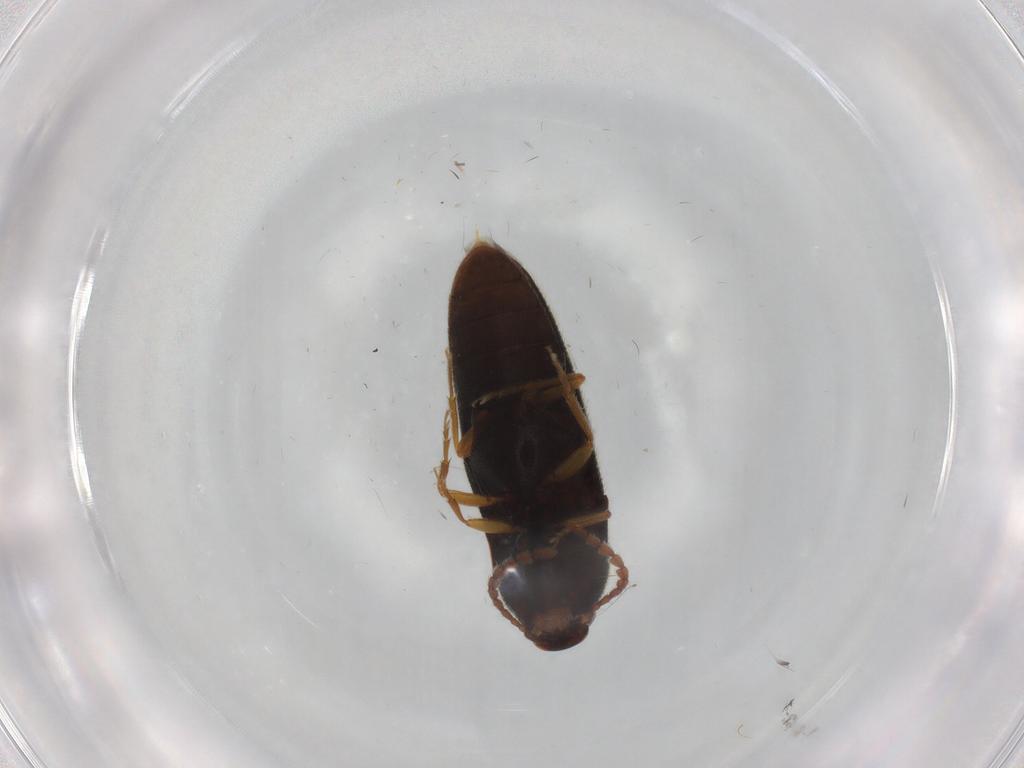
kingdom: Animalia
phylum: Arthropoda
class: Insecta
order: Coleoptera
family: Elateridae
